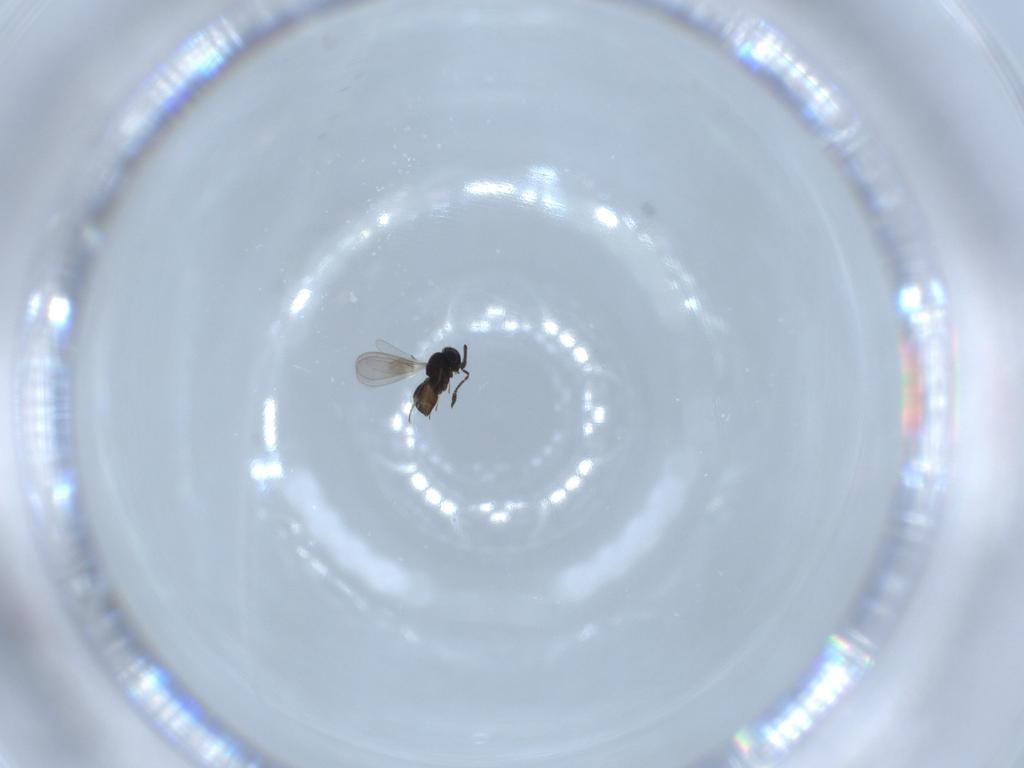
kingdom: Animalia
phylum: Arthropoda
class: Insecta
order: Hymenoptera
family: Scelionidae
